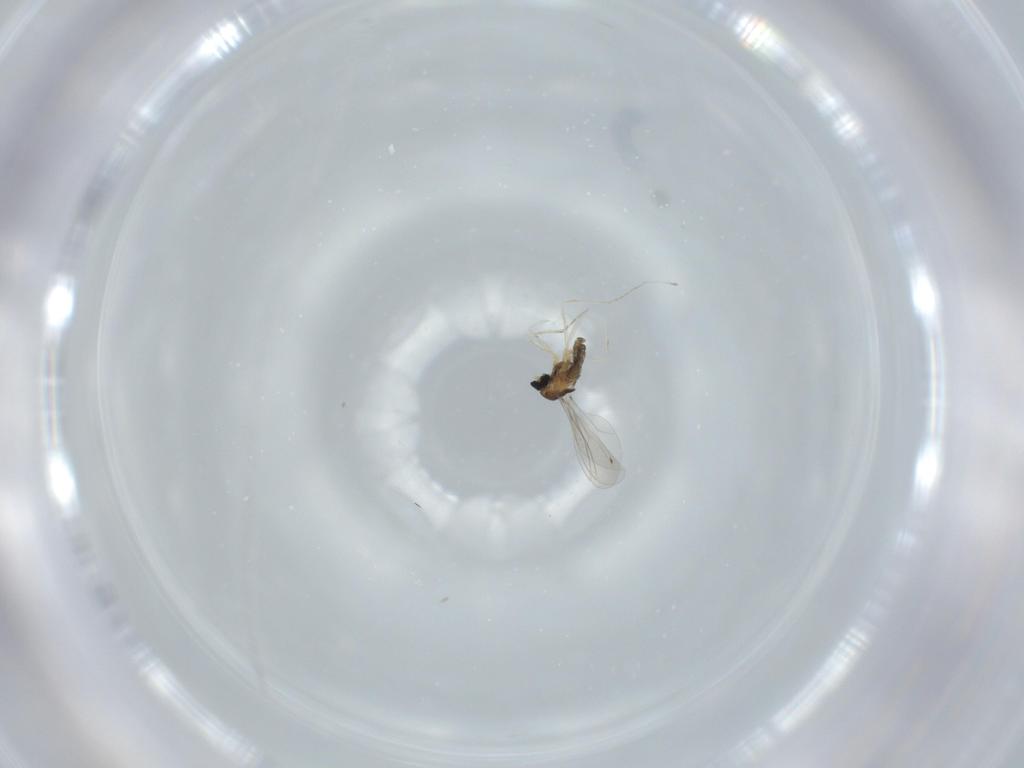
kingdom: Animalia
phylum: Arthropoda
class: Insecta
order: Diptera
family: Cecidomyiidae
